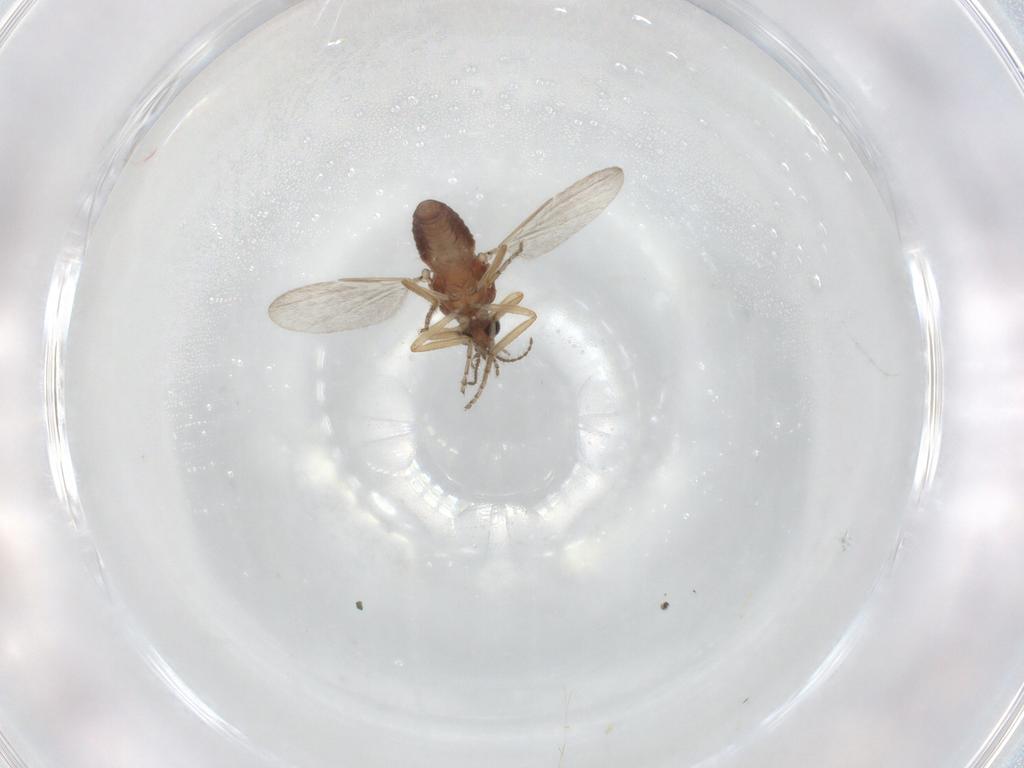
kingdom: Animalia
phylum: Arthropoda
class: Insecta
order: Diptera
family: Ceratopogonidae
